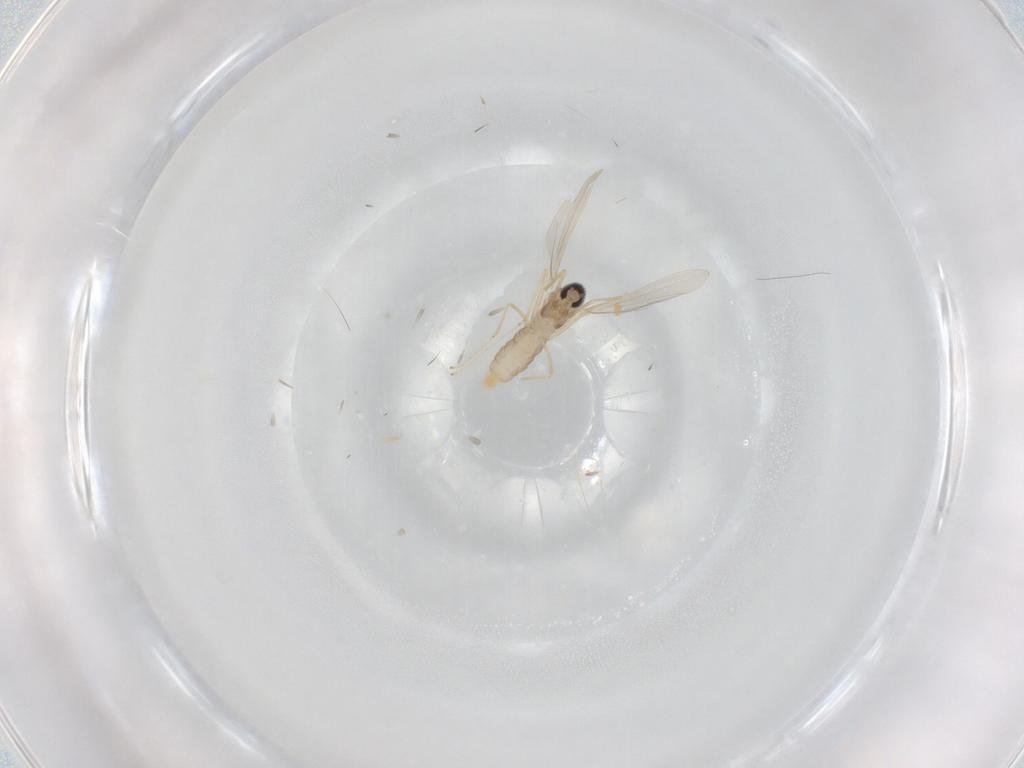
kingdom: Animalia
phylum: Arthropoda
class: Insecta
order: Diptera
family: Cecidomyiidae
